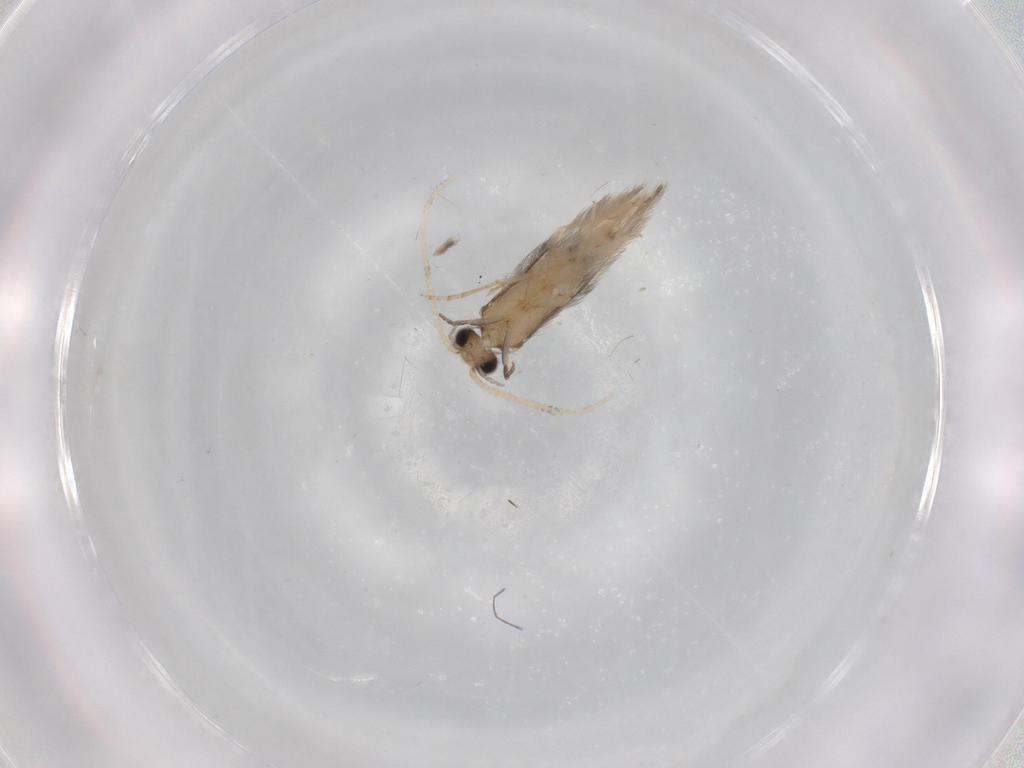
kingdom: Animalia
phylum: Arthropoda
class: Insecta
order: Trichoptera
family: Hydroptilidae
